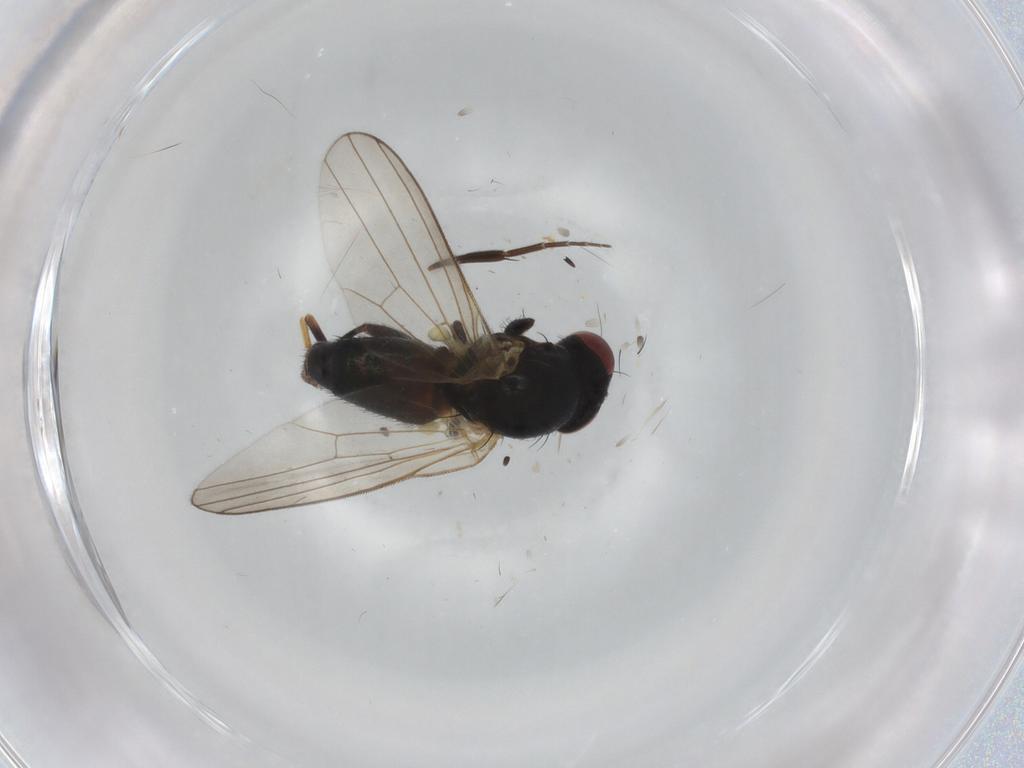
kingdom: Animalia
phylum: Arthropoda
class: Insecta
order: Diptera
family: Chamaemyiidae
